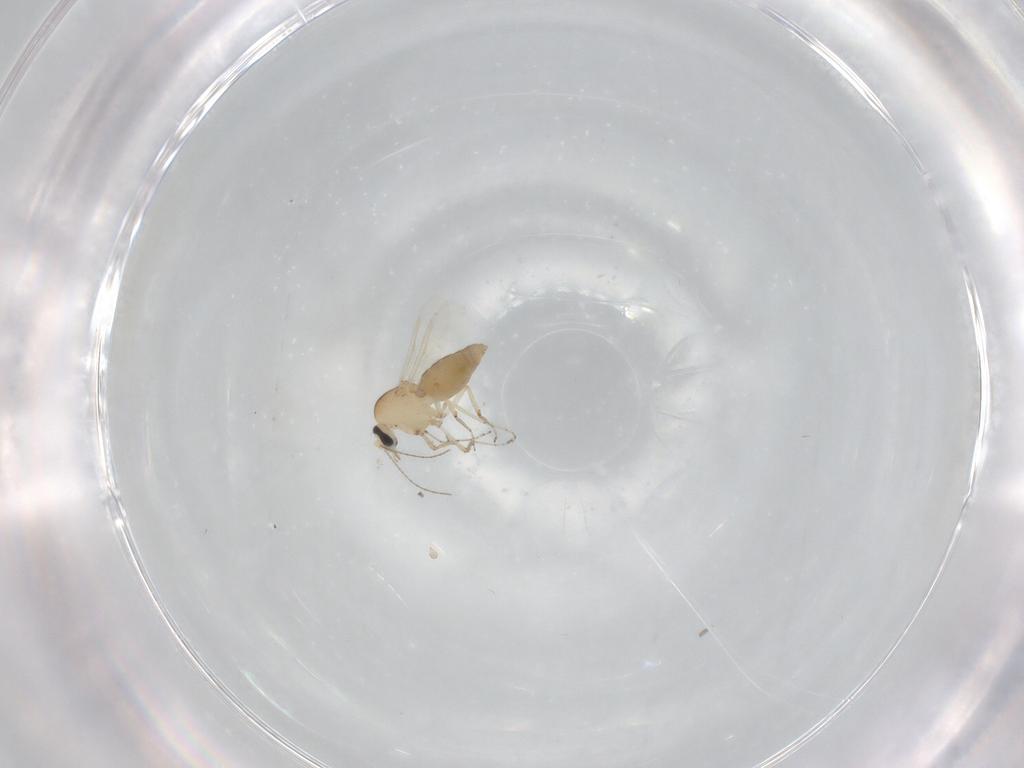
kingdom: Animalia
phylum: Arthropoda
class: Insecta
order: Diptera
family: Ceratopogonidae
